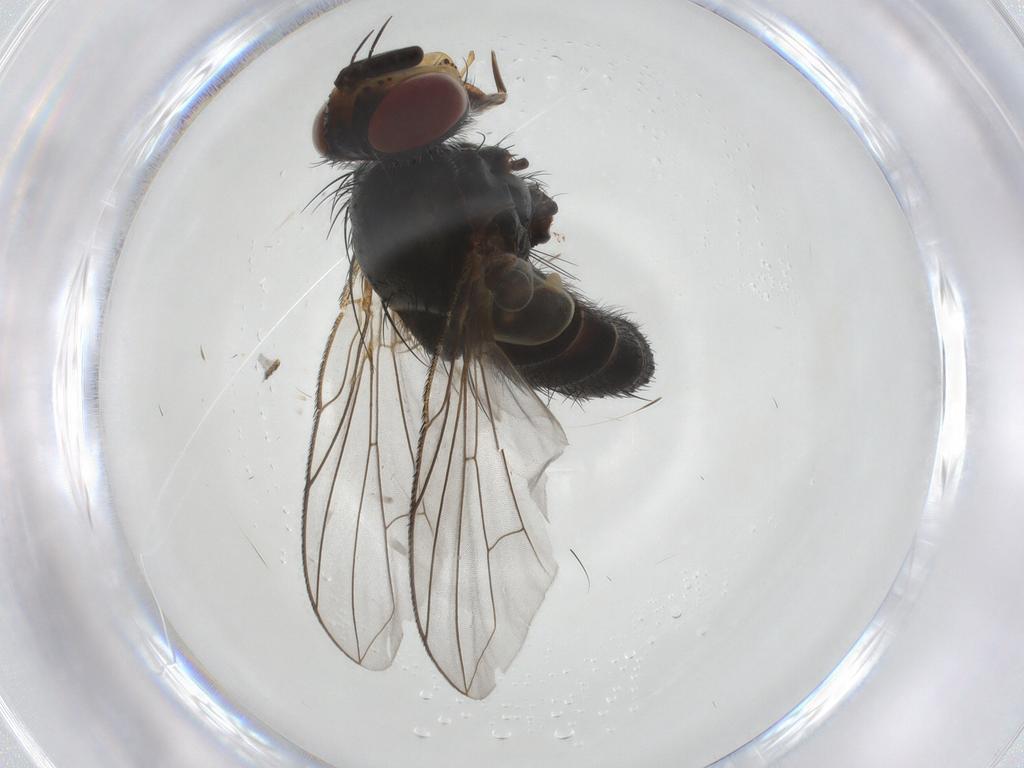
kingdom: Animalia
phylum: Arthropoda
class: Insecta
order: Diptera
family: Tachinidae
